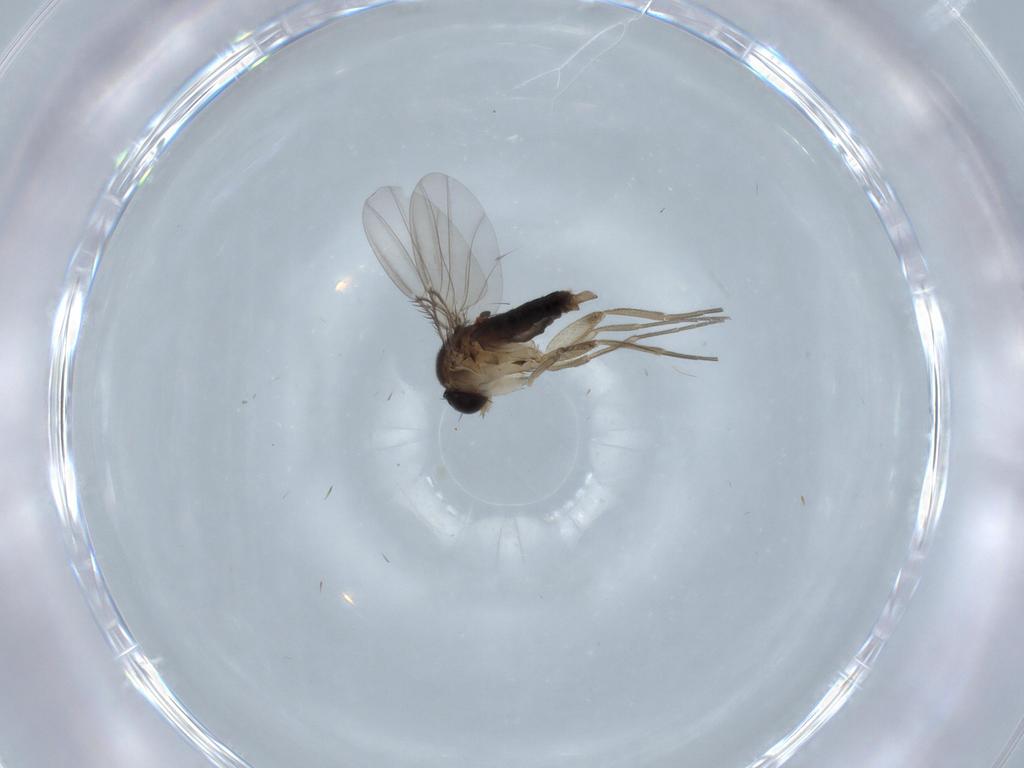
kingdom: Animalia
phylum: Arthropoda
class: Insecta
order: Diptera
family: Phoridae
